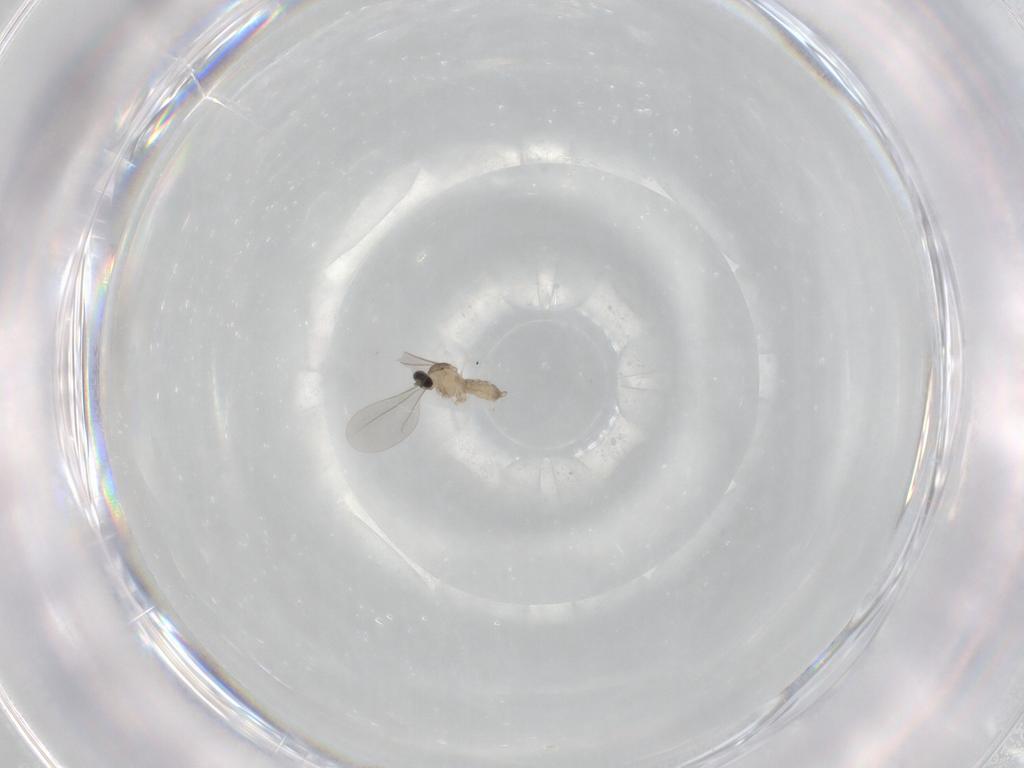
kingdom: Animalia
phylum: Arthropoda
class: Insecta
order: Diptera
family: Cecidomyiidae
